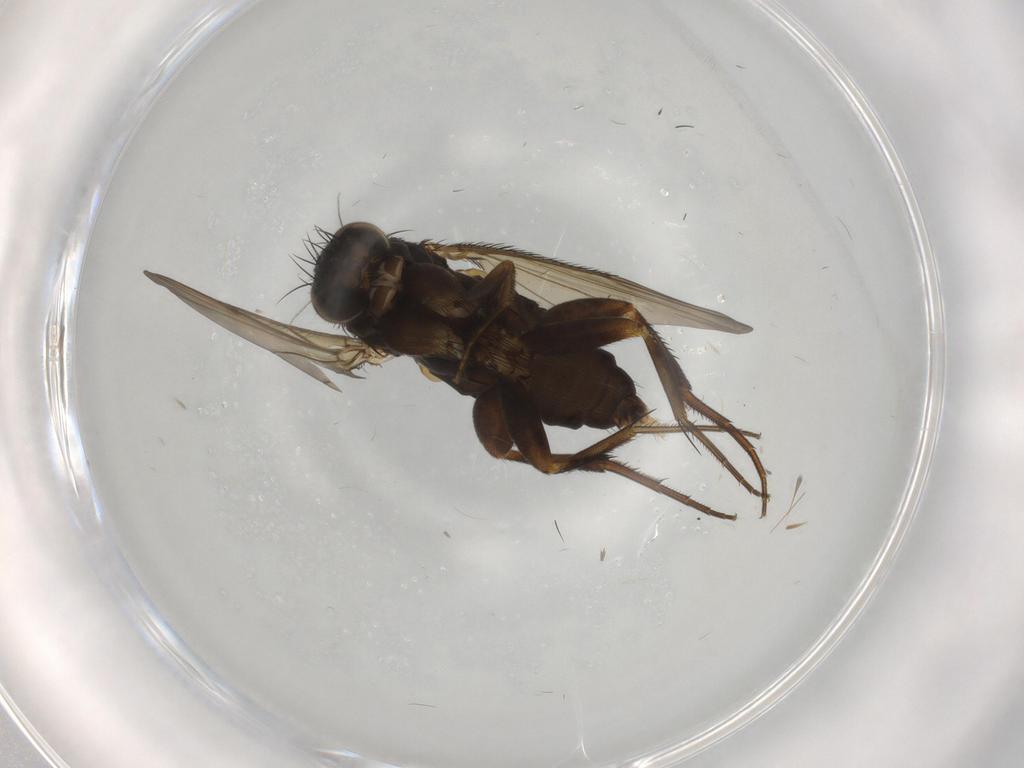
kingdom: Animalia
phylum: Arthropoda
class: Insecta
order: Diptera
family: Phoridae
